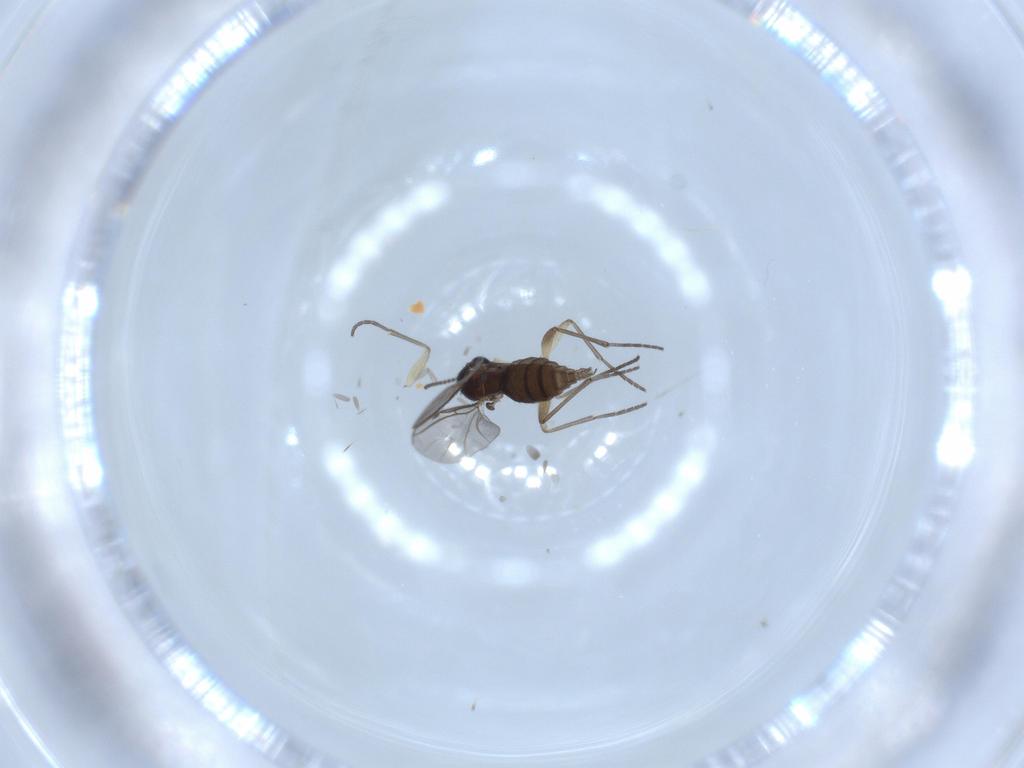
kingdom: Animalia
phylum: Arthropoda
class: Insecta
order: Diptera
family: Sciaridae
